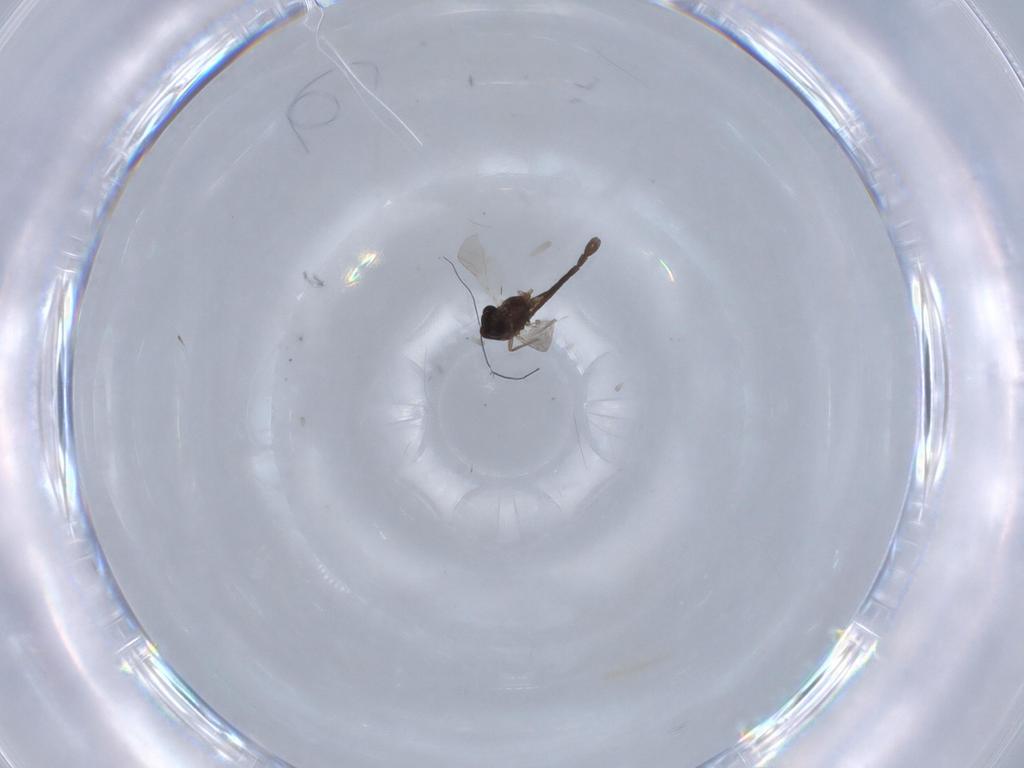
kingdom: Animalia
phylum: Arthropoda
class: Insecta
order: Diptera
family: Chironomidae
